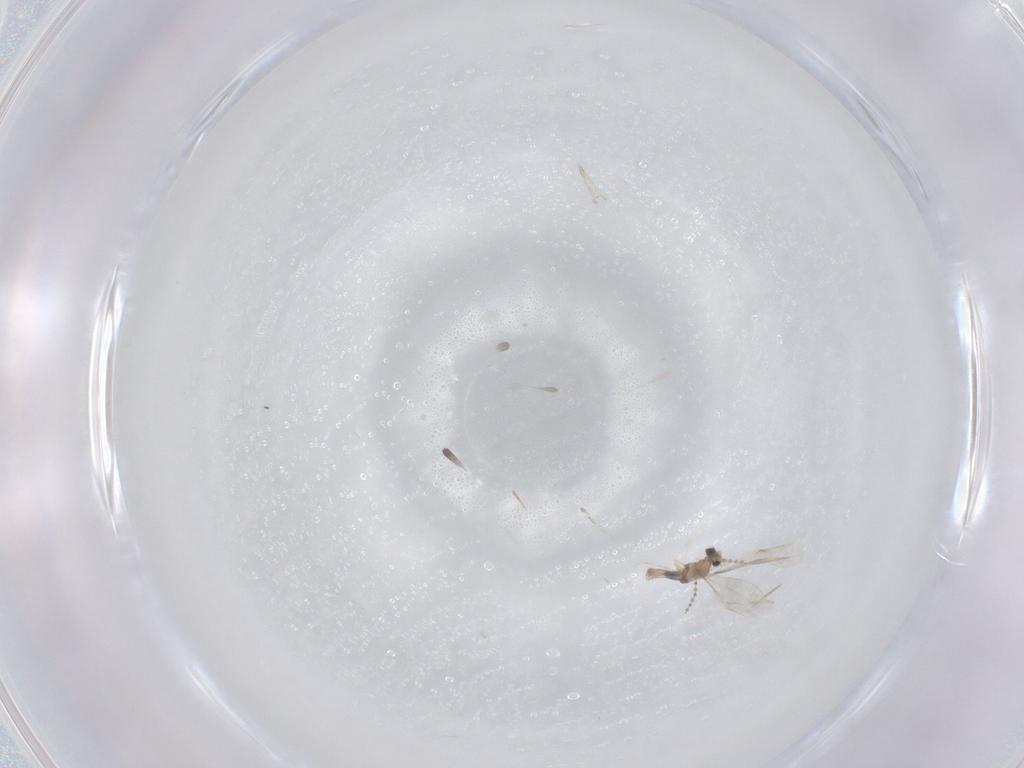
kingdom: Animalia
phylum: Arthropoda
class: Insecta
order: Diptera
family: Cecidomyiidae
